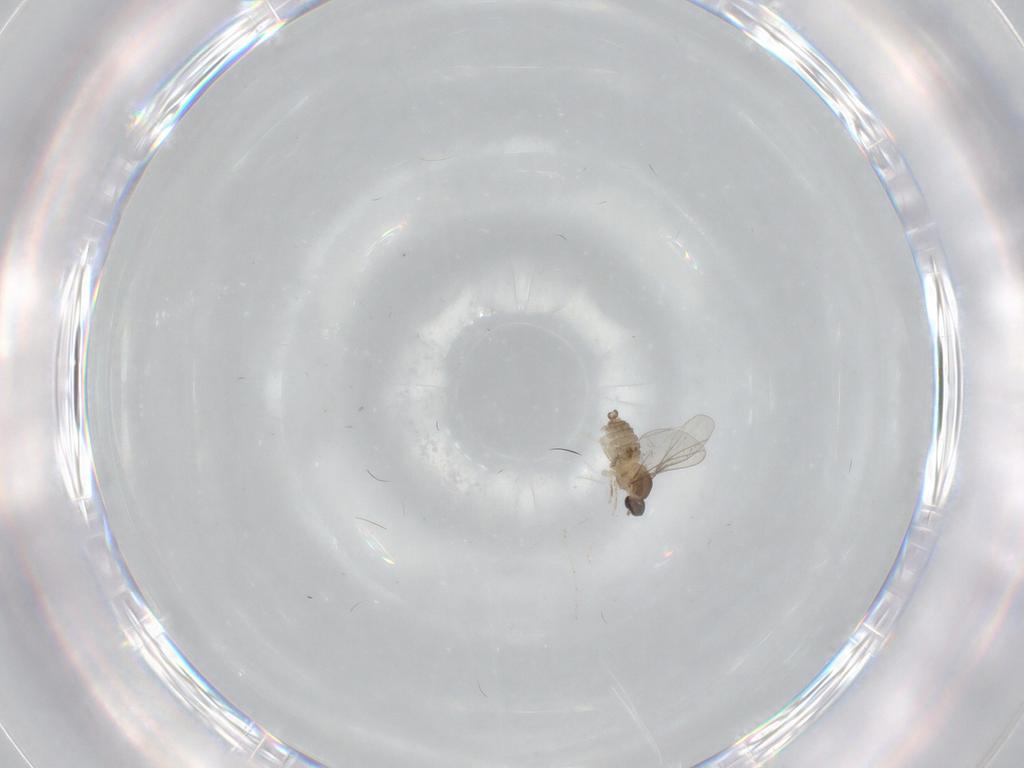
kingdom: Animalia
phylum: Arthropoda
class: Insecta
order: Diptera
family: Cecidomyiidae
